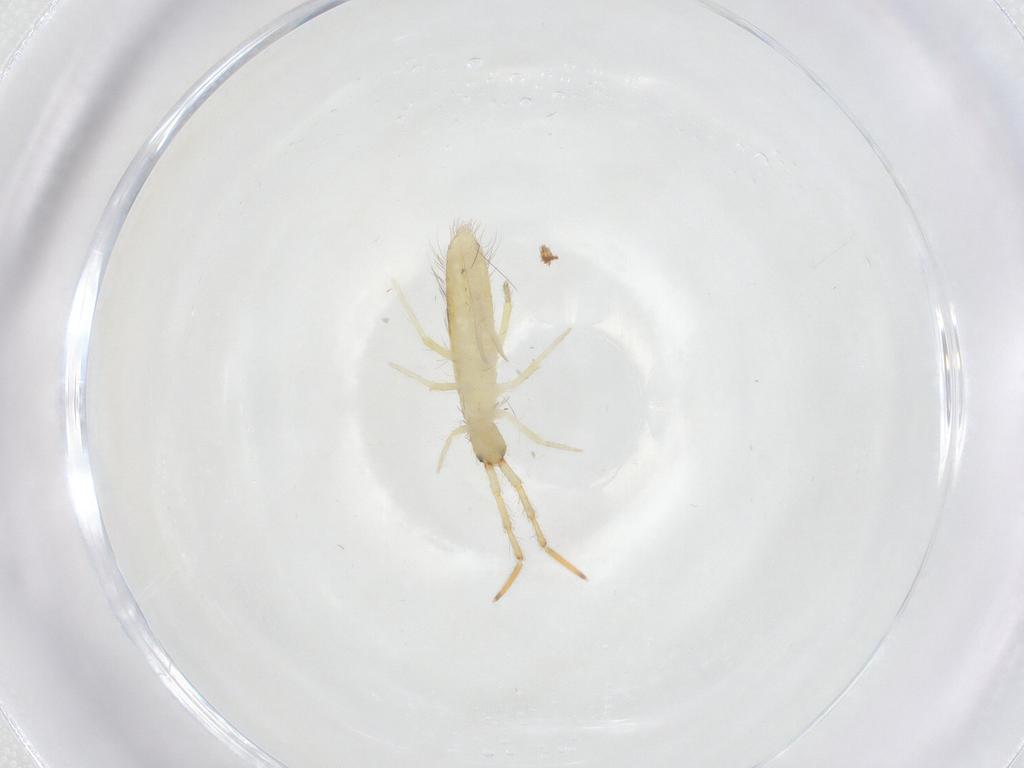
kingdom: Animalia
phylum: Arthropoda
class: Collembola
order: Entomobryomorpha
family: Entomobryidae
